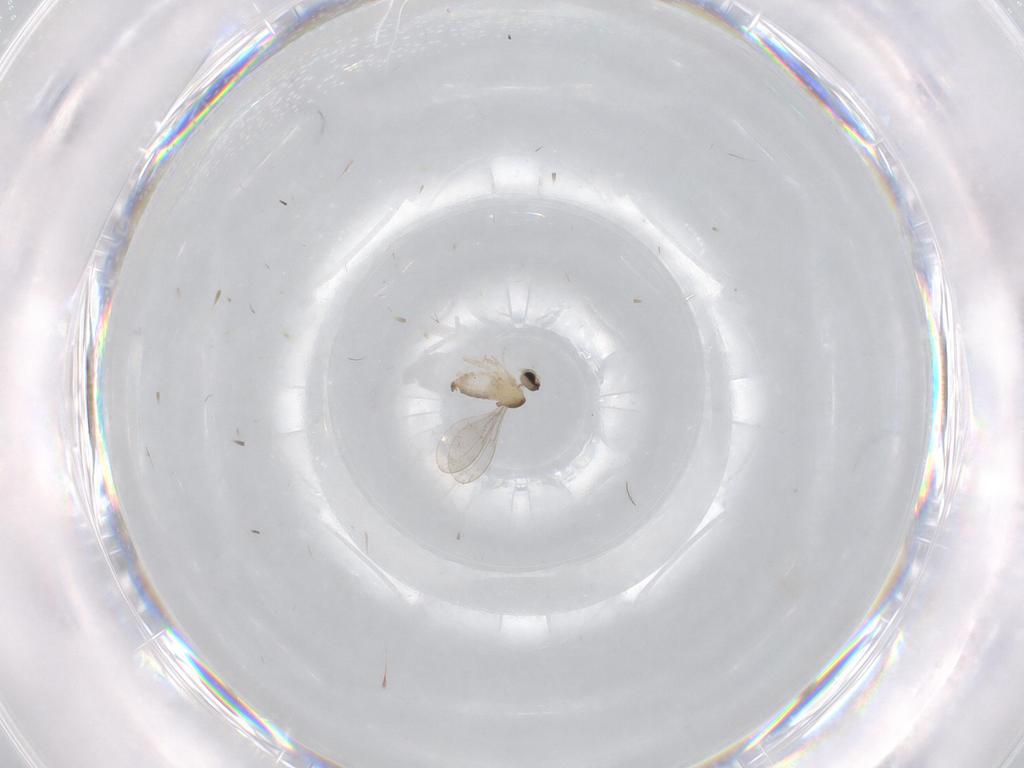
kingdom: Animalia
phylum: Arthropoda
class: Insecta
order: Diptera
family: Cecidomyiidae
